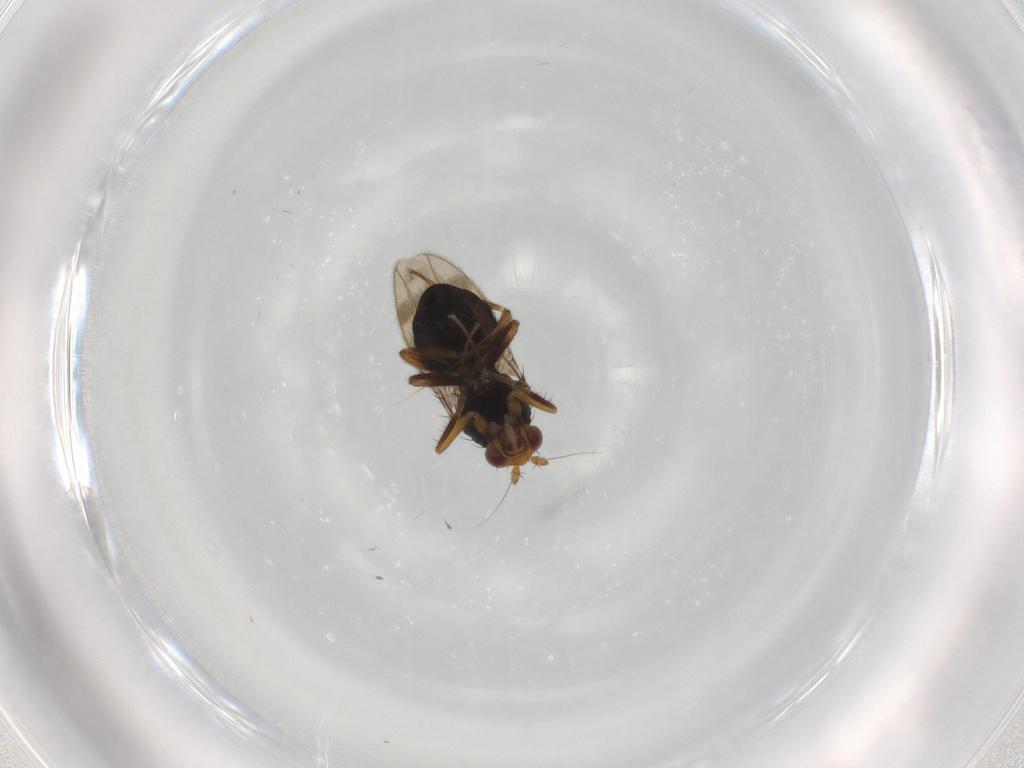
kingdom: Animalia
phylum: Arthropoda
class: Insecta
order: Diptera
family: Sphaeroceridae
